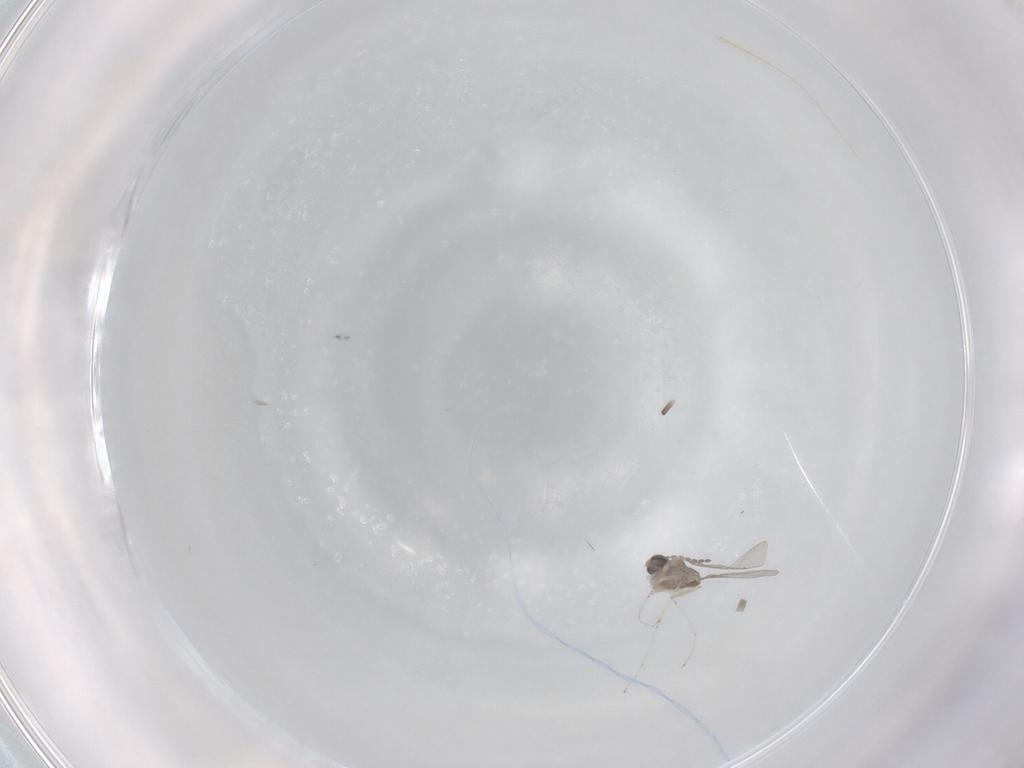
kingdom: Animalia
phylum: Arthropoda
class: Insecta
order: Diptera
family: Cecidomyiidae
